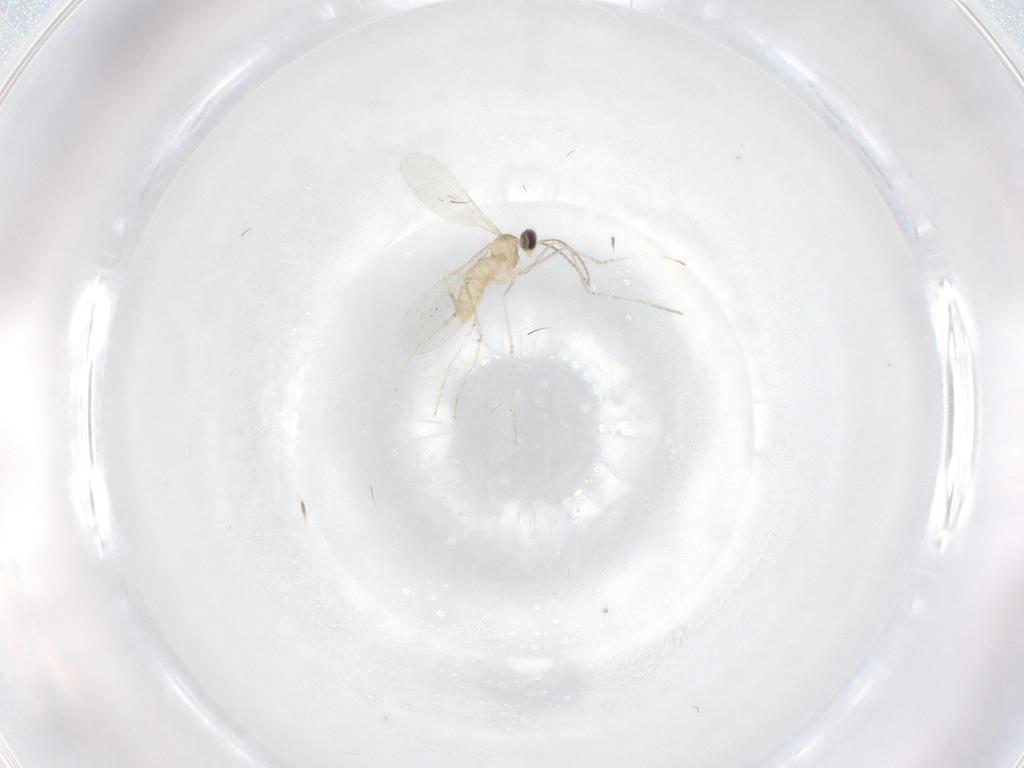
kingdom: Animalia
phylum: Arthropoda
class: Insecta
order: Diptera
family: Cecidomyiidae
